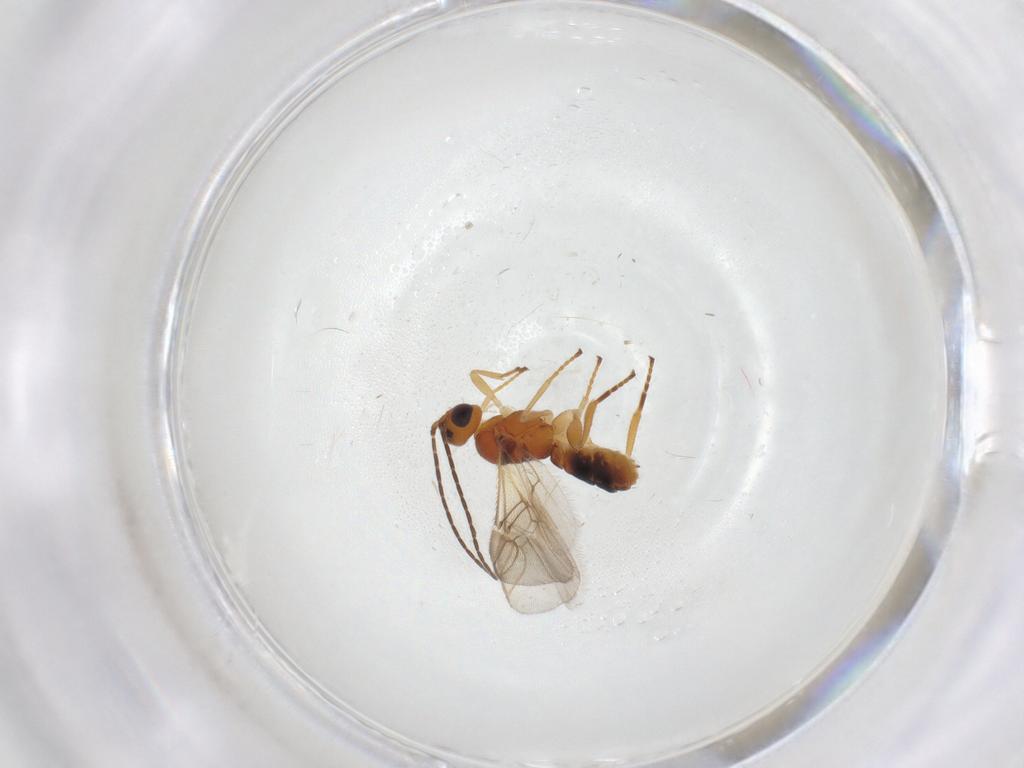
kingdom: Animalia
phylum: Arthropoda
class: Insecta
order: Hymenoptera
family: Braconidae
